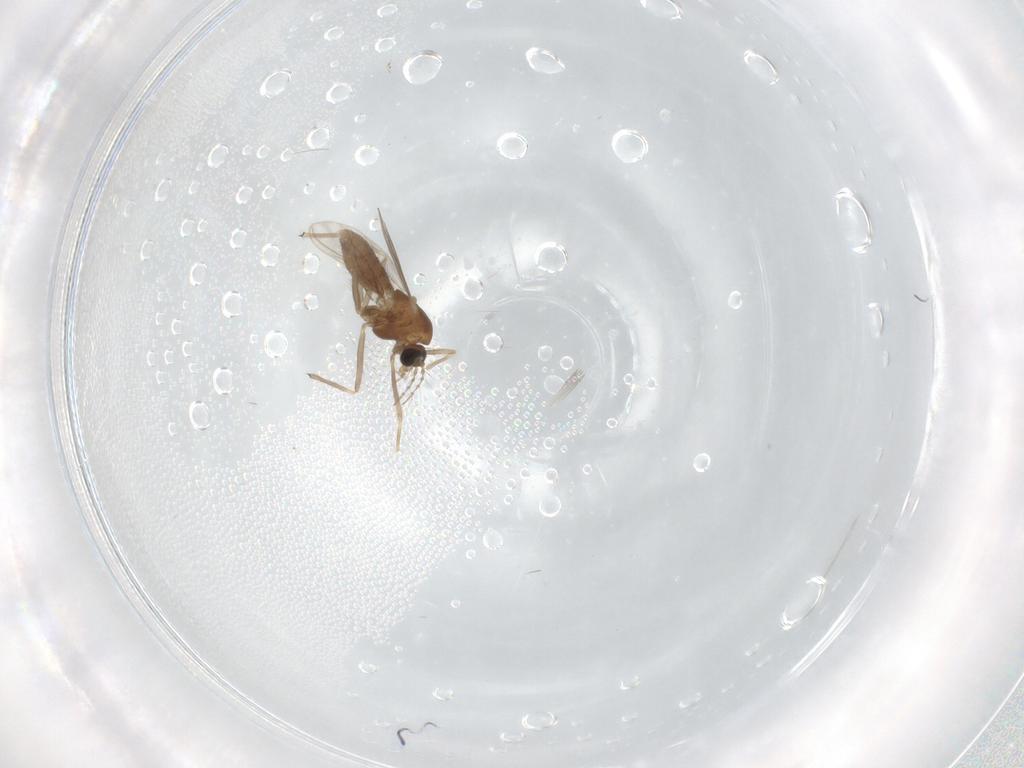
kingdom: Animalia
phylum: Arthropoda
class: Insecta
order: Diptera
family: Chironomidae
